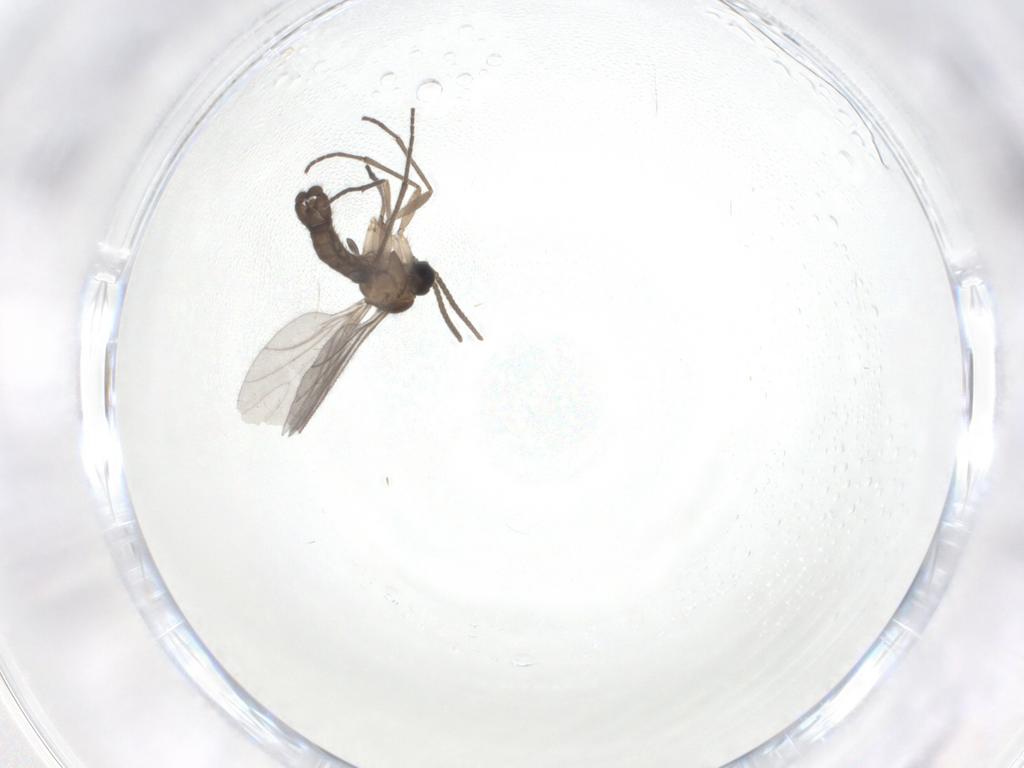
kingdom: Animalia
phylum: Arthropoda
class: Insecta
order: Diptera
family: Sciaridae
